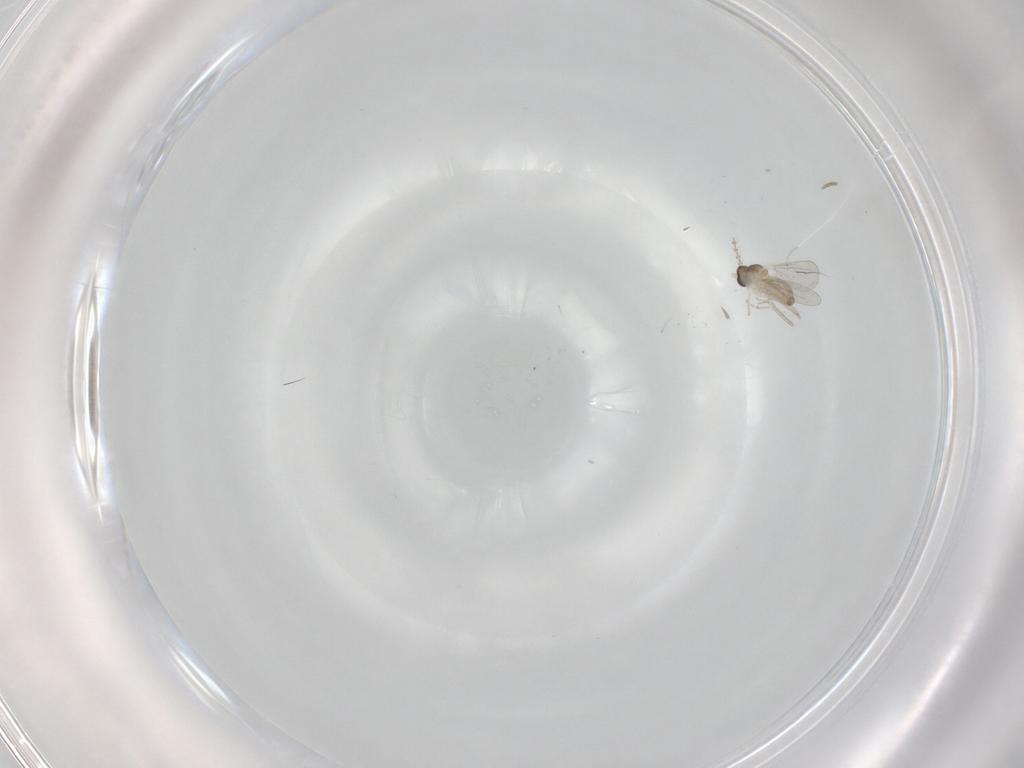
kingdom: Animalia
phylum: Arthropoda
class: Insecta
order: Diptera
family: Cecidomyiidae
